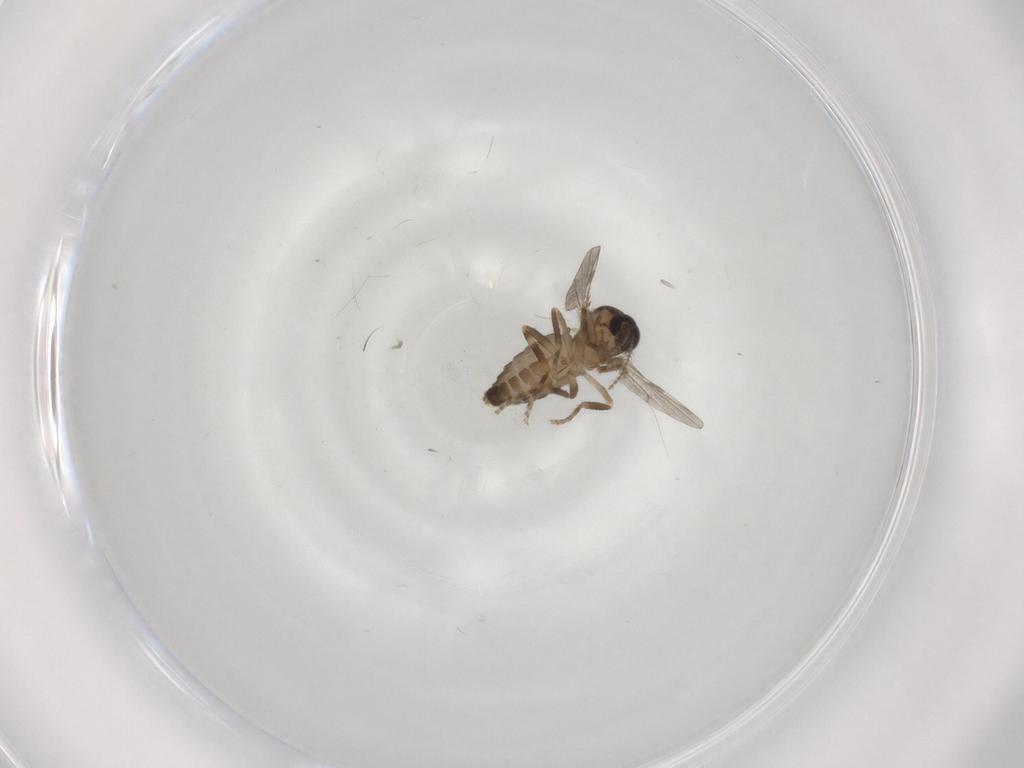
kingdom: Animalia
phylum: Arthropoda
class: Insecta
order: Diptera
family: Ceratopogonidae
